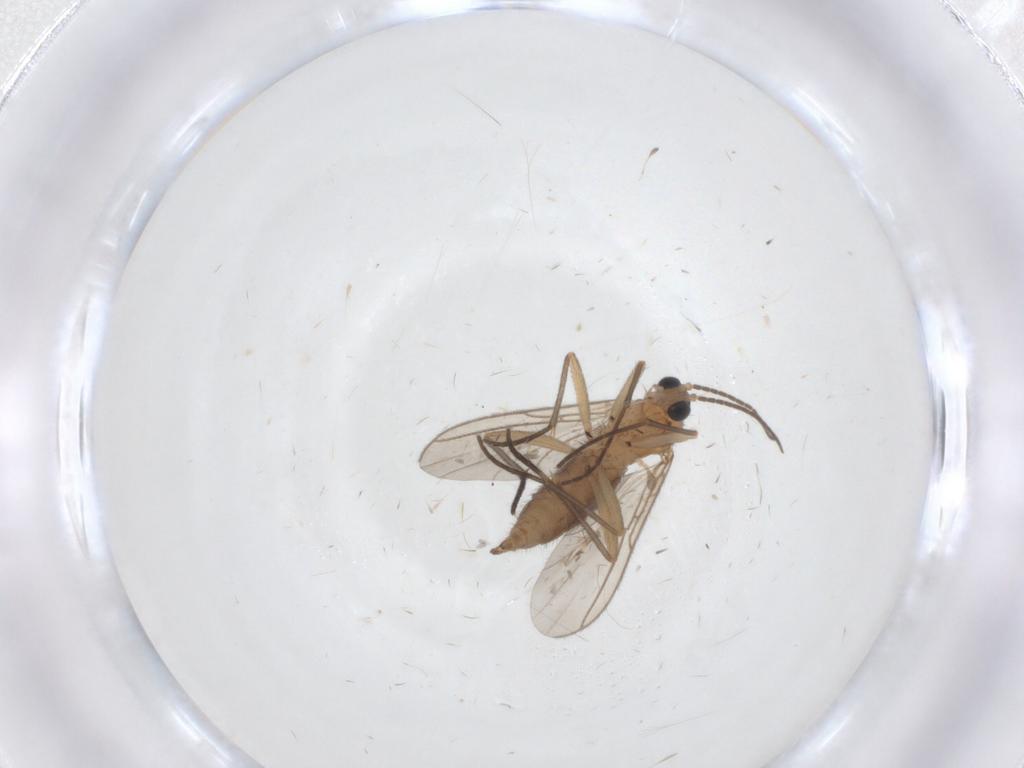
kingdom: Animalia
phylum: Arthropoda
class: Insecta
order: Diptera
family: Sciaridae
